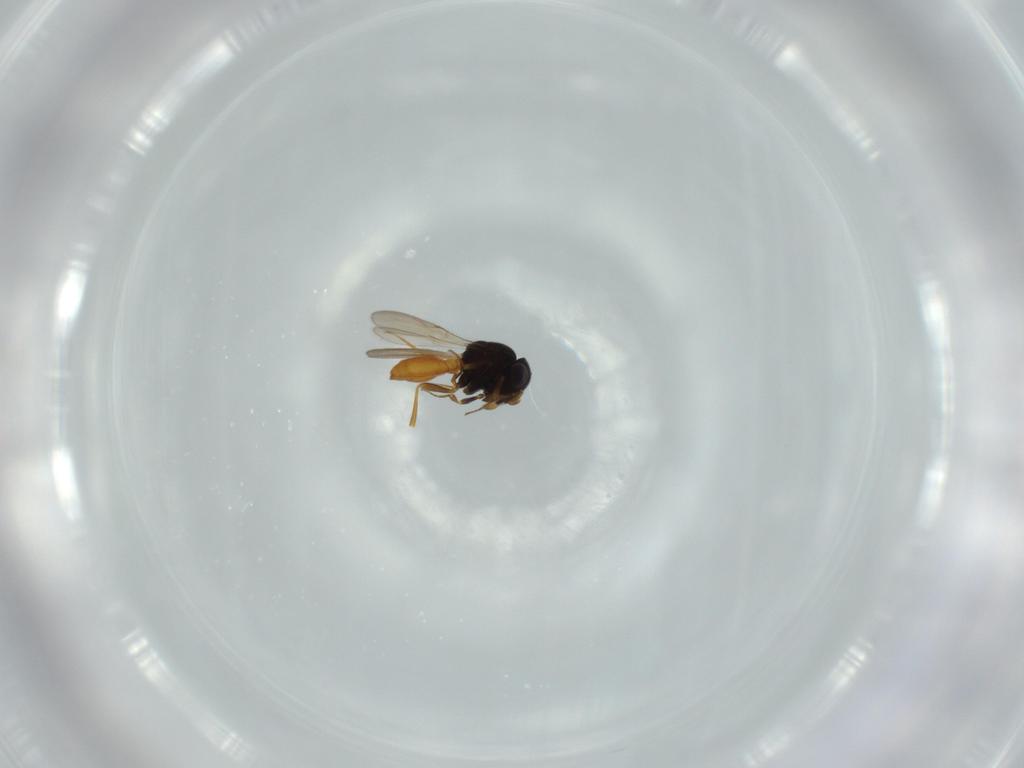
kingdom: Animalia
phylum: Arthropoda
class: Insecta
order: Hymenoptera
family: Scelionidae
